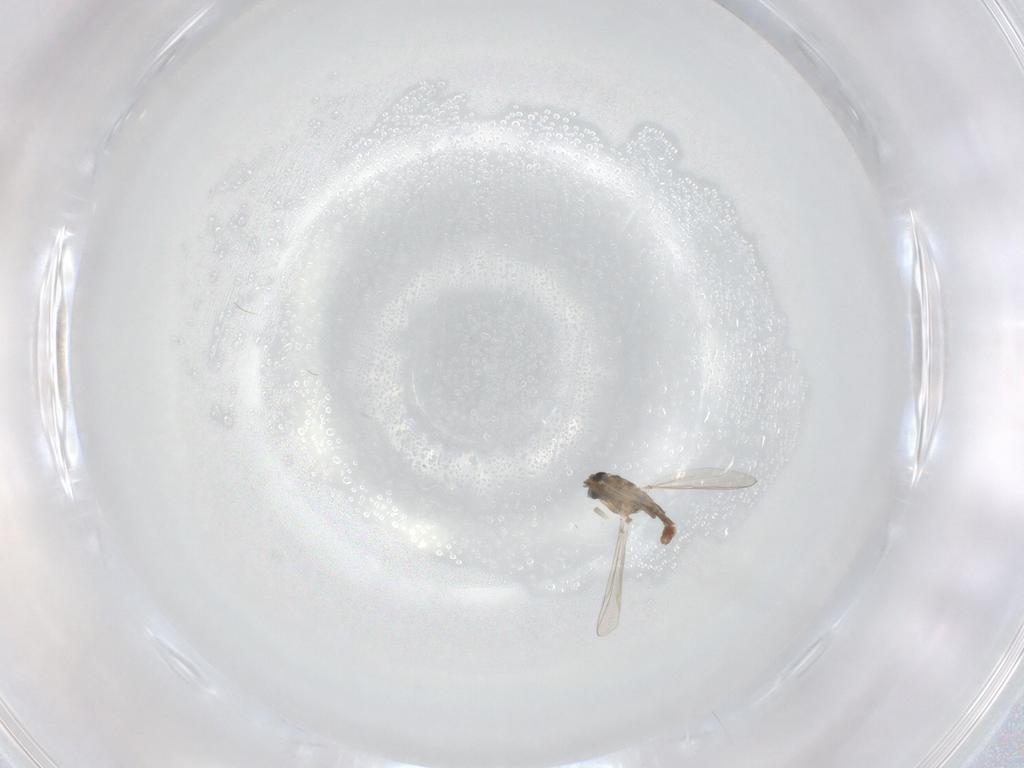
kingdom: Animalia
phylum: Arthropoda
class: Insecta
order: Diptera
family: Chironomidae
